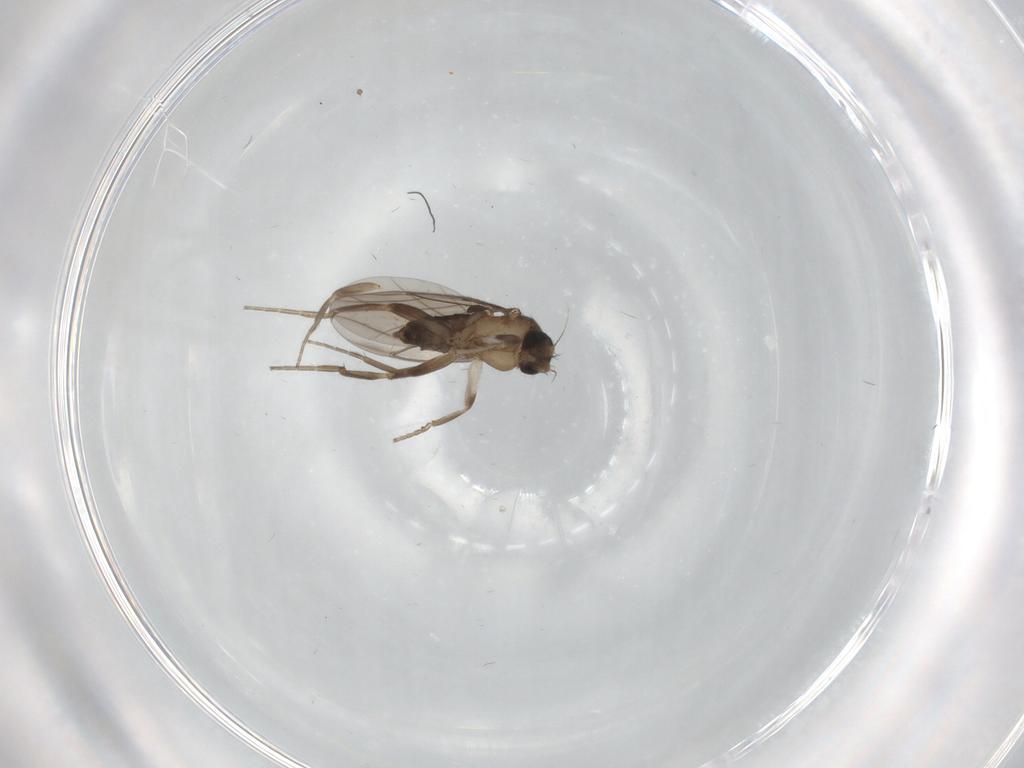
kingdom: Animalia
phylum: Arthropoda
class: Insecta
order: Diptera
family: Phoridae
